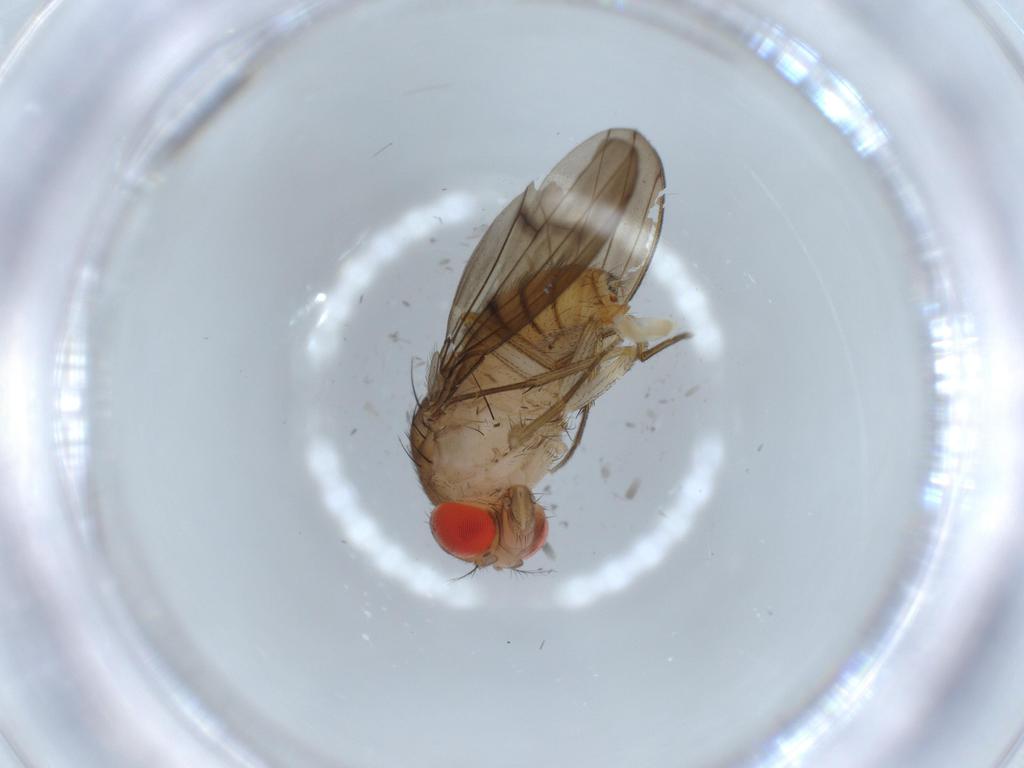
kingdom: Animalia
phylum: Arthropoda
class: Insecta
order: Diptera
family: Drosophilidae
